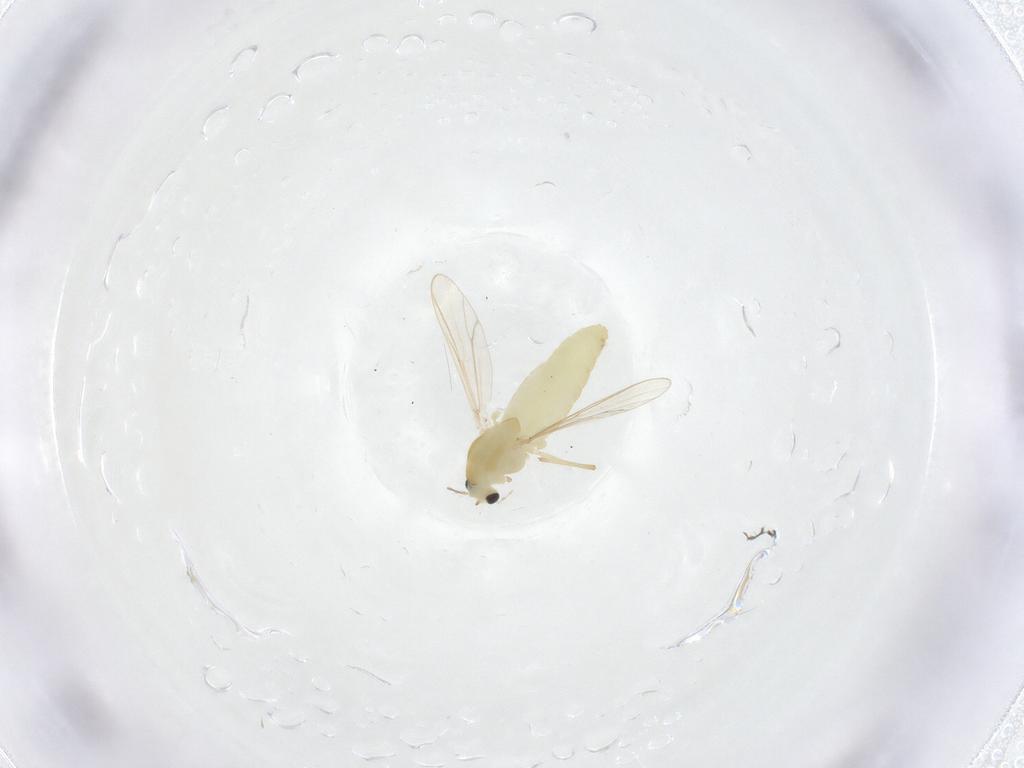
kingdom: Animalia
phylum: Arthropoda
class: Insecta
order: Diptera
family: Chironomidae
